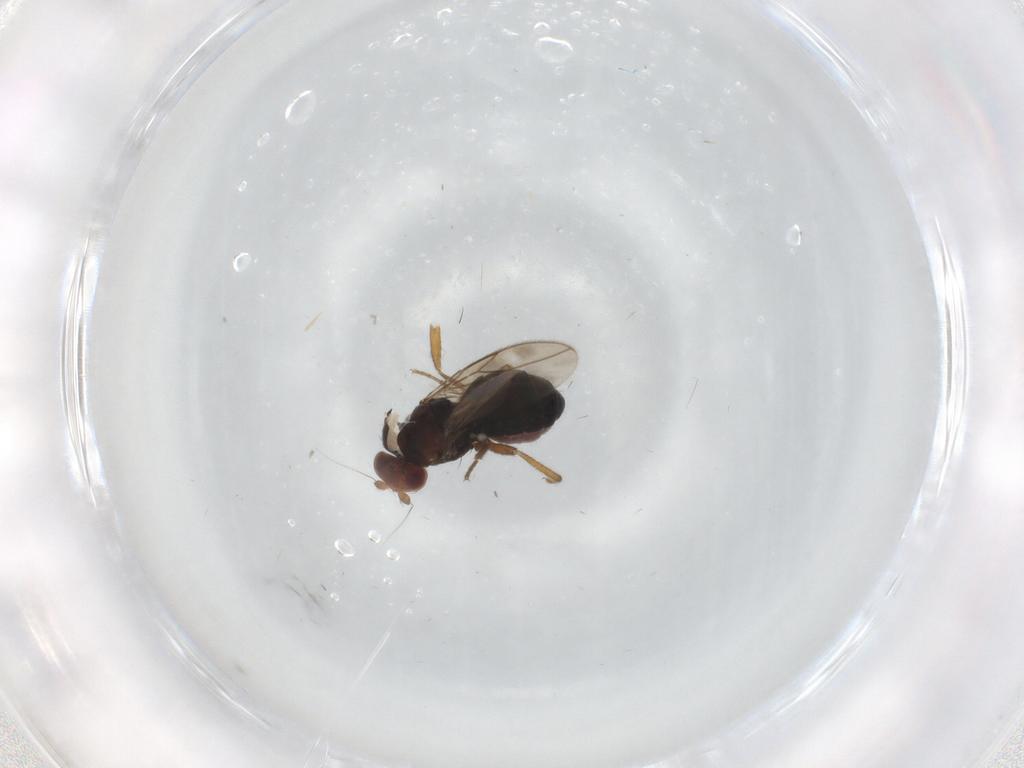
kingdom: Animalia
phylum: Arthropoda
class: Insecta
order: Diptera
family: Sphaeroceridae
